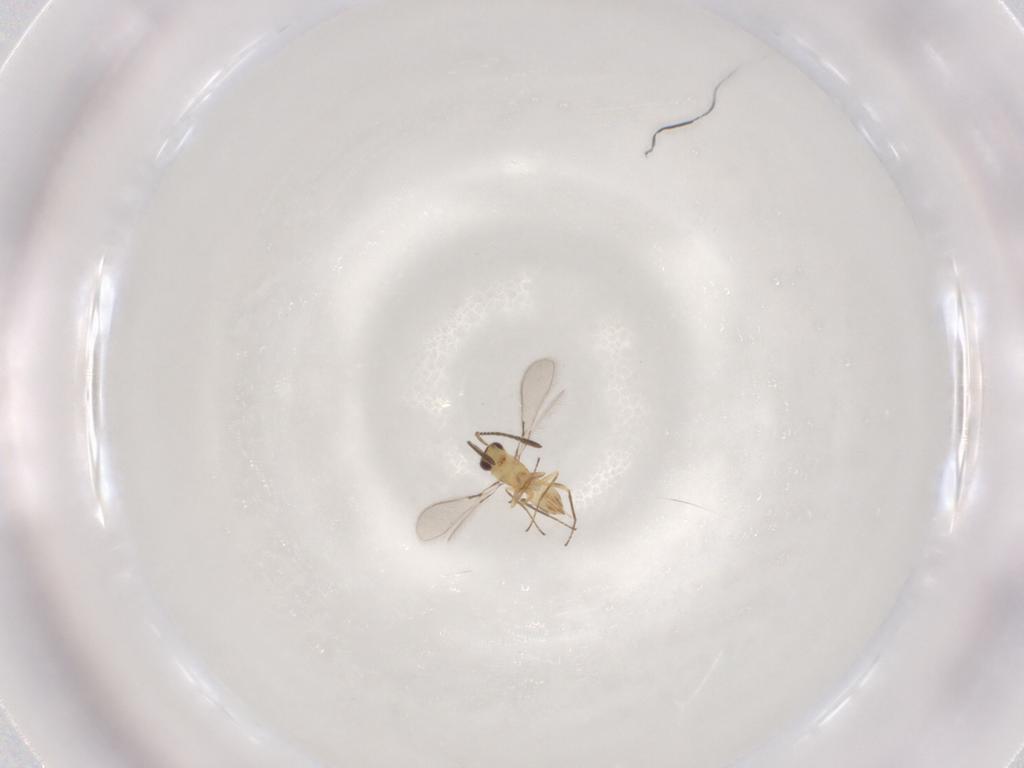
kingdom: Animalia
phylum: Arthropoda
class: Insecta
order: Hymenoptera
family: Mymaridae
